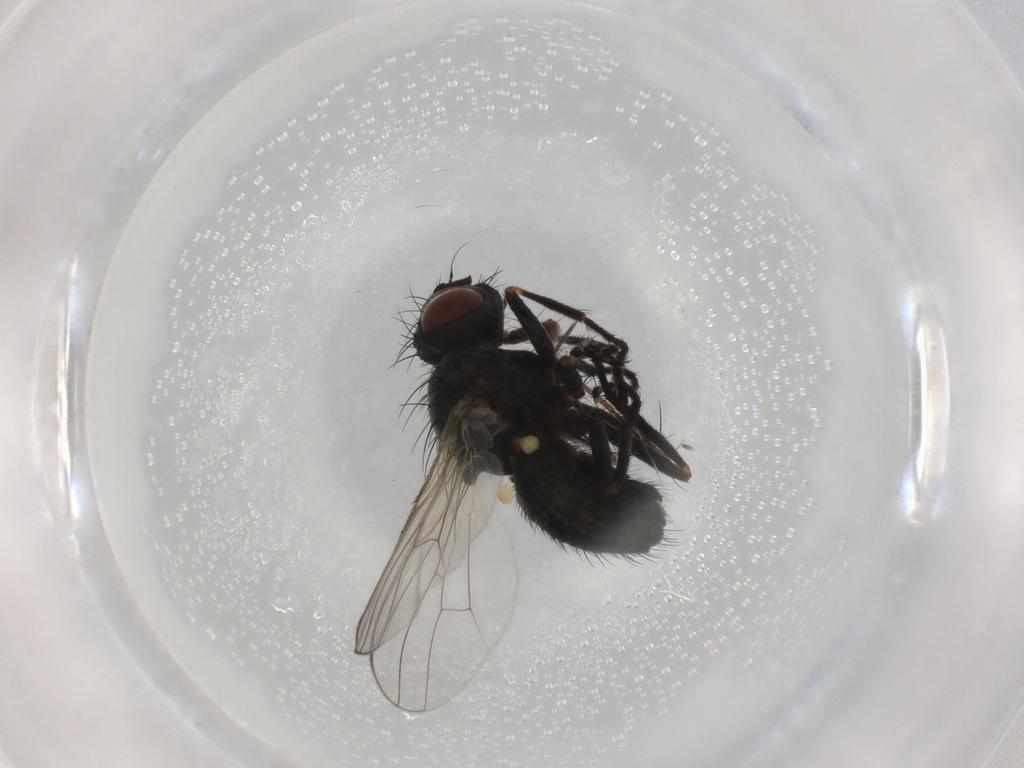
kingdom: Animalia
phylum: Arthropoda
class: Insecta
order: Diptera
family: Muscidae
